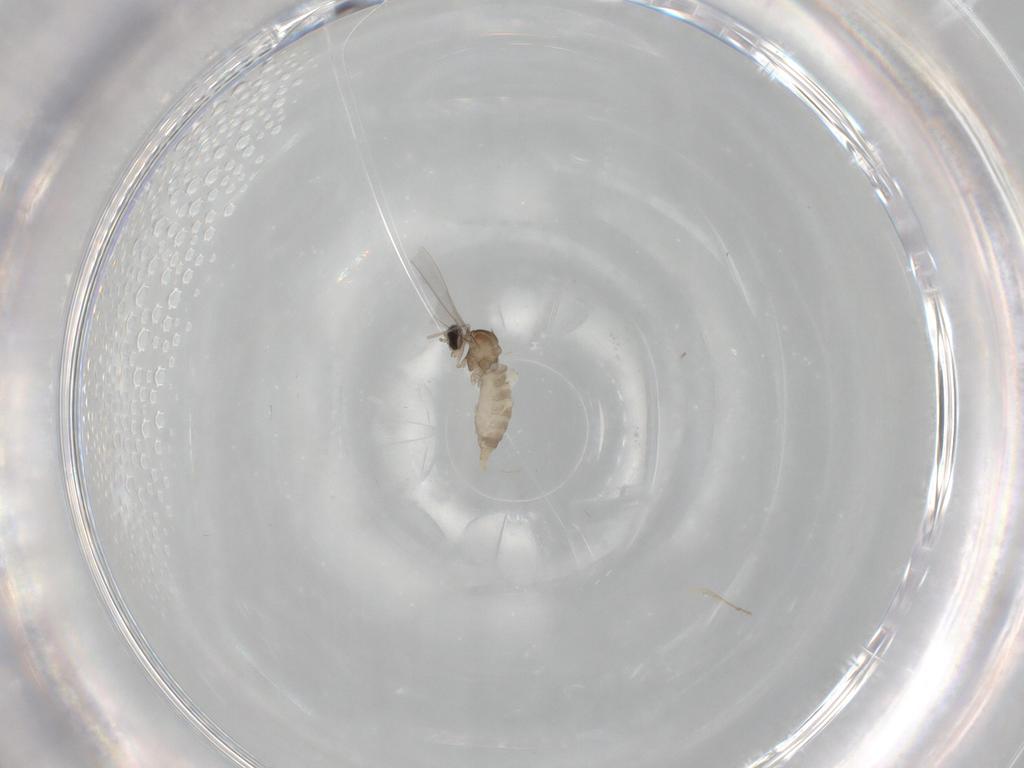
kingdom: Animalia
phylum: Arthropoda
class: Insecta
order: Diptera
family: Cecidomyiidae
